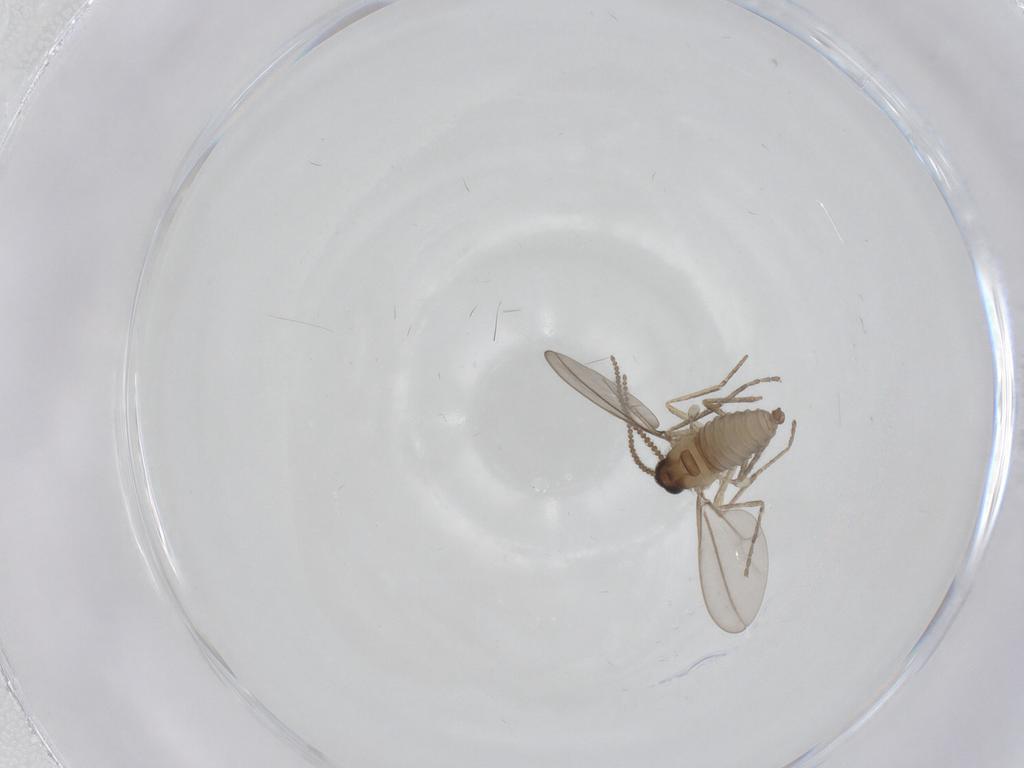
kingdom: Animalia
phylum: Arthropoda
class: Insecta
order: Diptera
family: Cecidomyiidae
